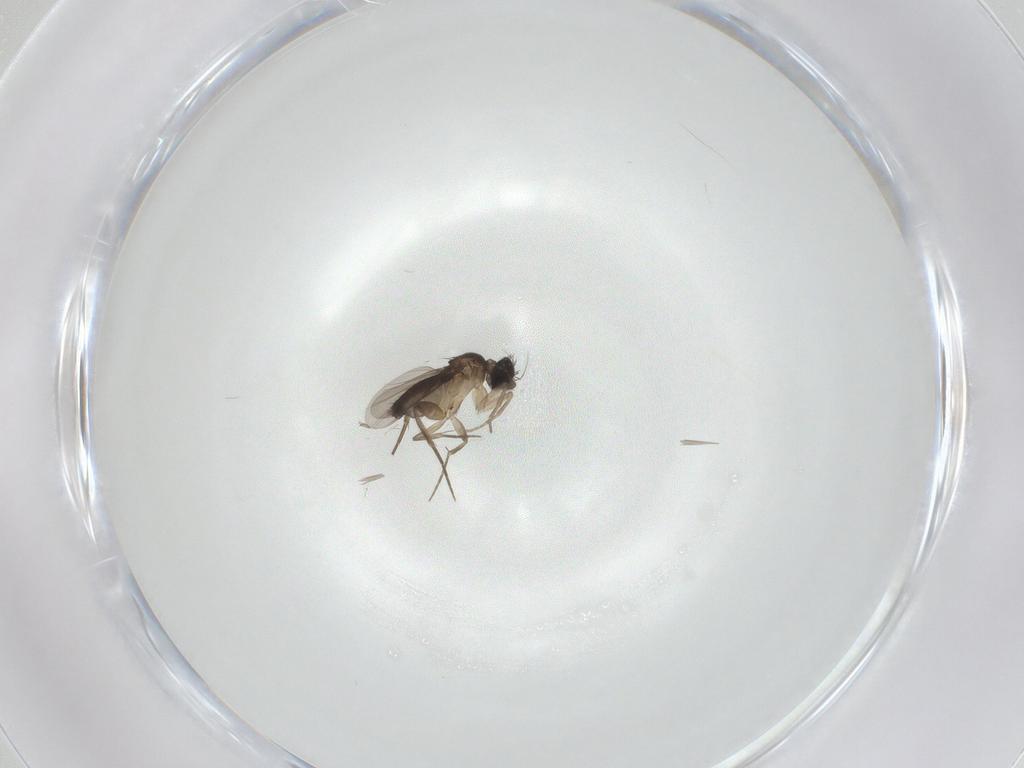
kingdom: Animalia
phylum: Arthropoda
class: Insecta
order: Diptera
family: Phoridae
